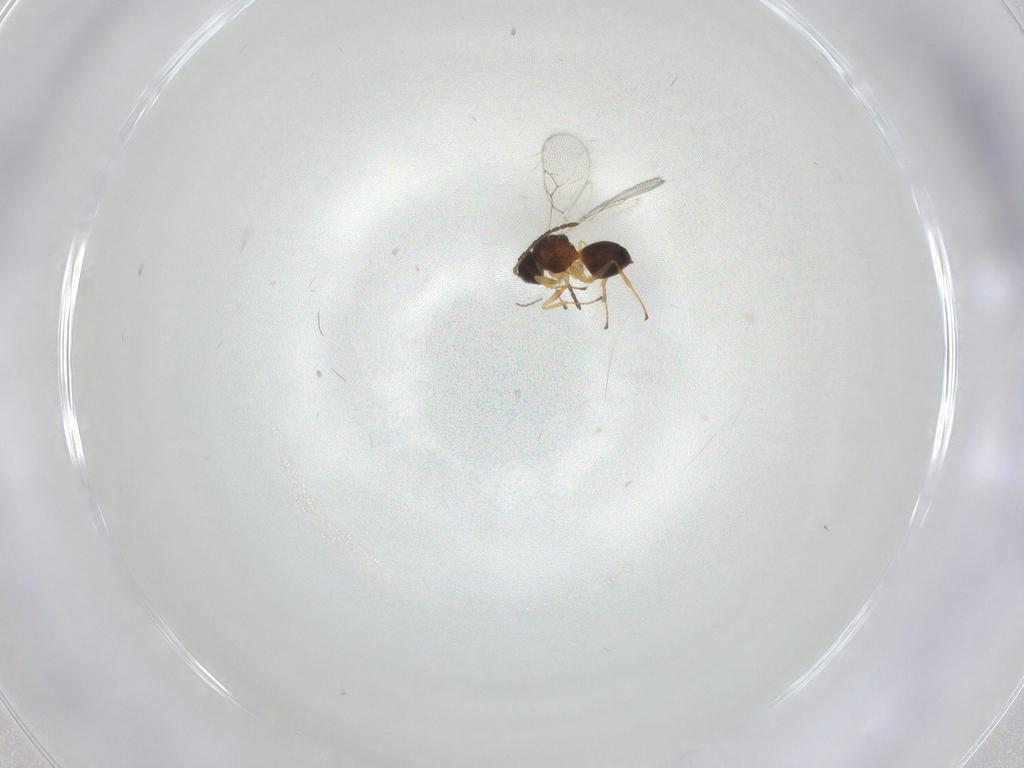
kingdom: Animalia
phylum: Arthropoda
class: Insecta
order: Hymenoptera
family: Figitidae
